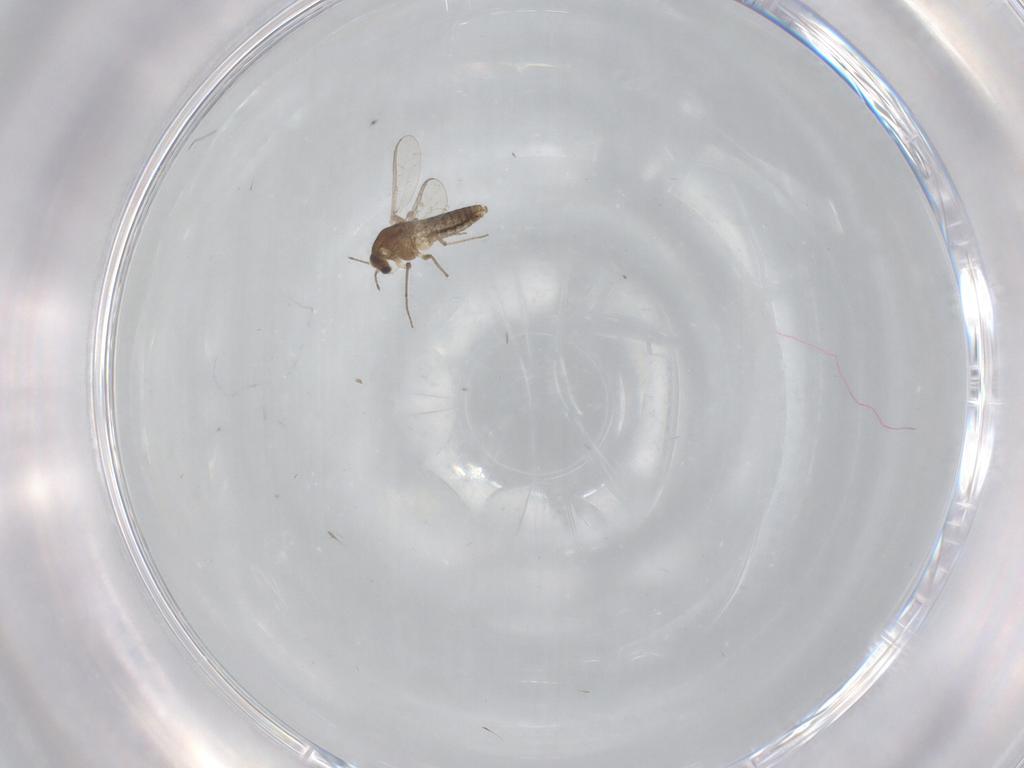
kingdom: Animalia
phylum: Arthropoda
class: Insecta
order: Diptera
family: Chironomidae
